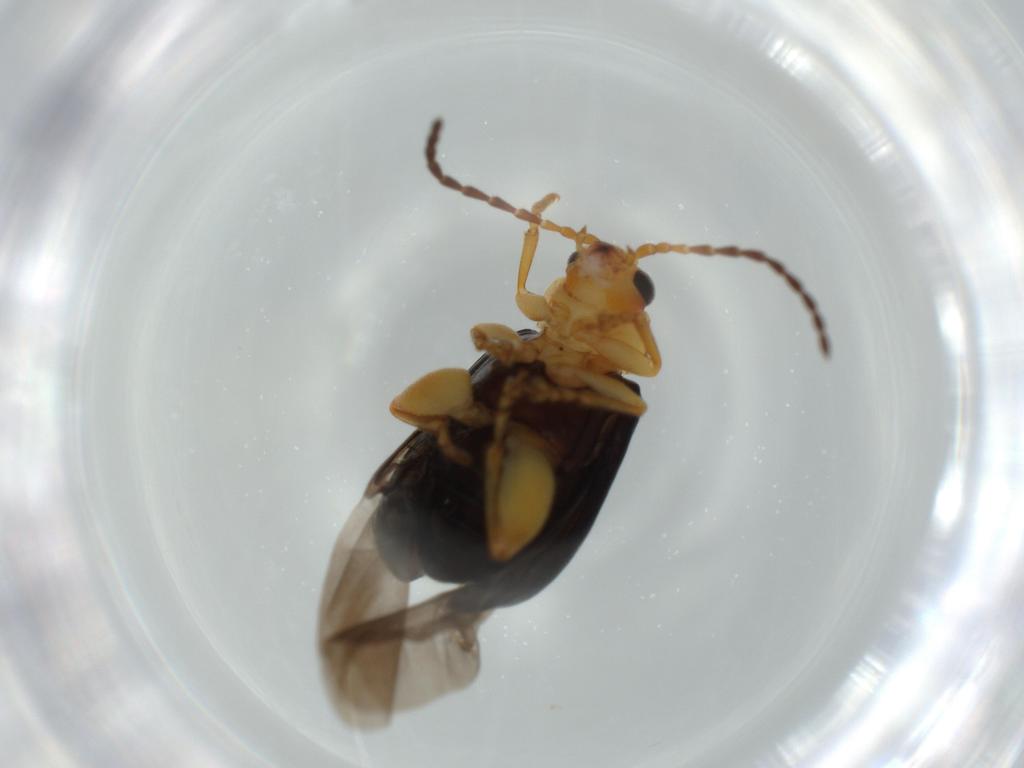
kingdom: Animalia
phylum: Arthropoda
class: Insecta
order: Coleoptera
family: Chrysomelidae
